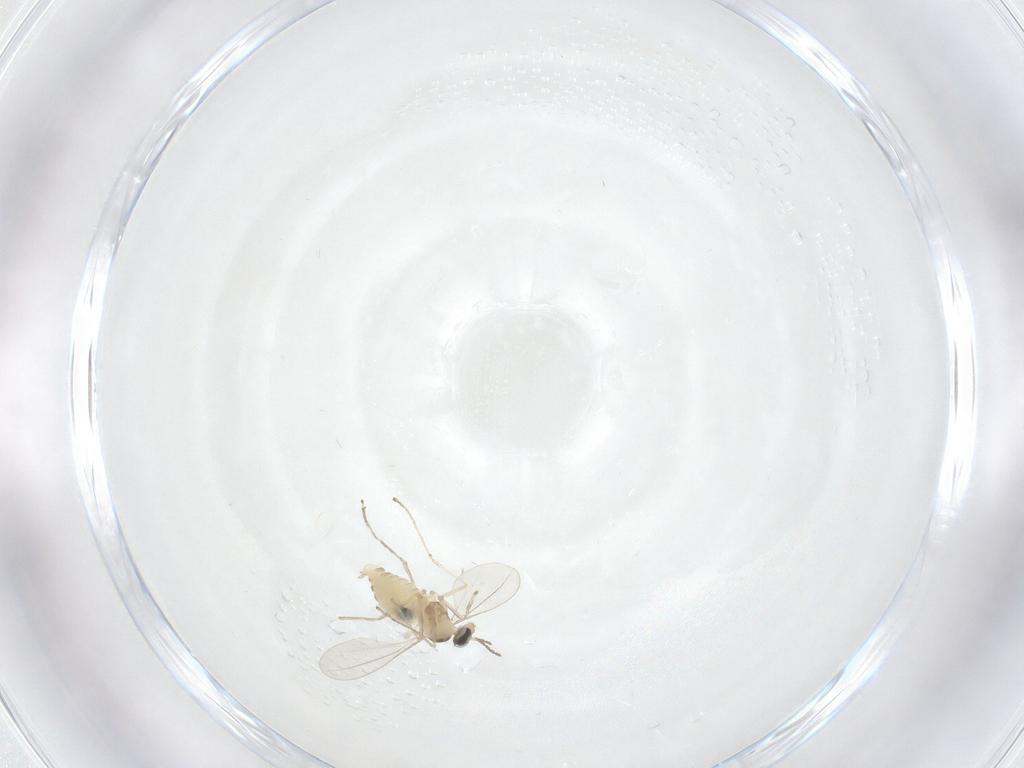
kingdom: Animalia
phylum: Arthropoda
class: Insecta
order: Diptera
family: Cecidomyiidae
